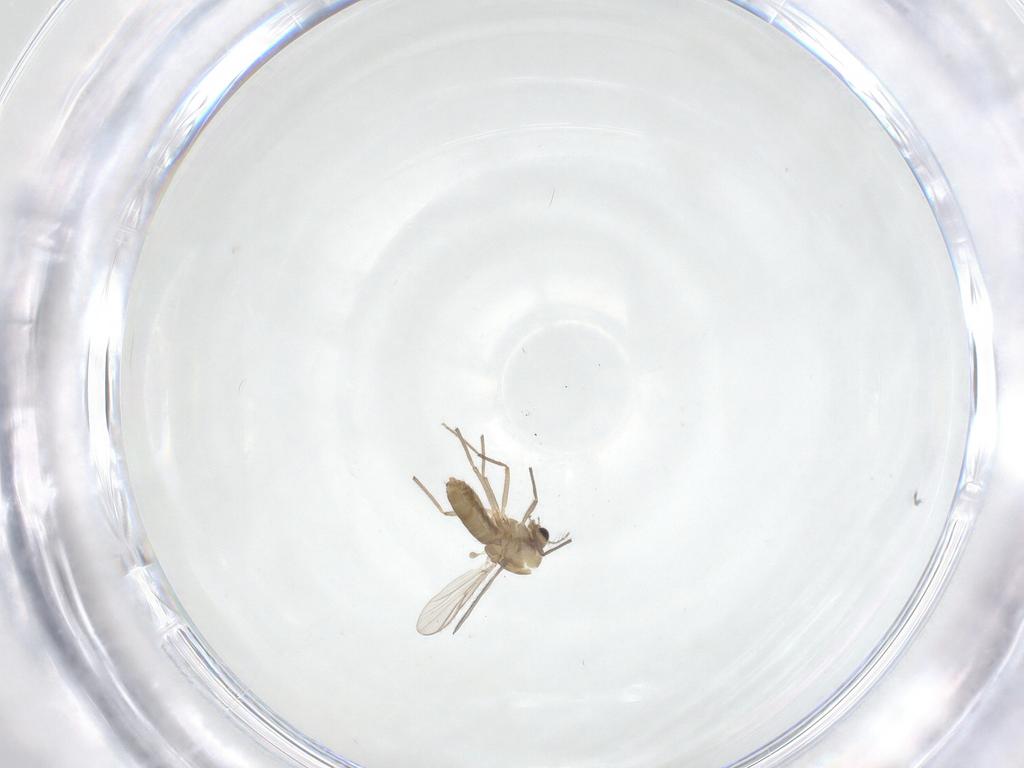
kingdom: Animalia
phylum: Arthropoda
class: Insecta
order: Diptera
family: Chironomidae
